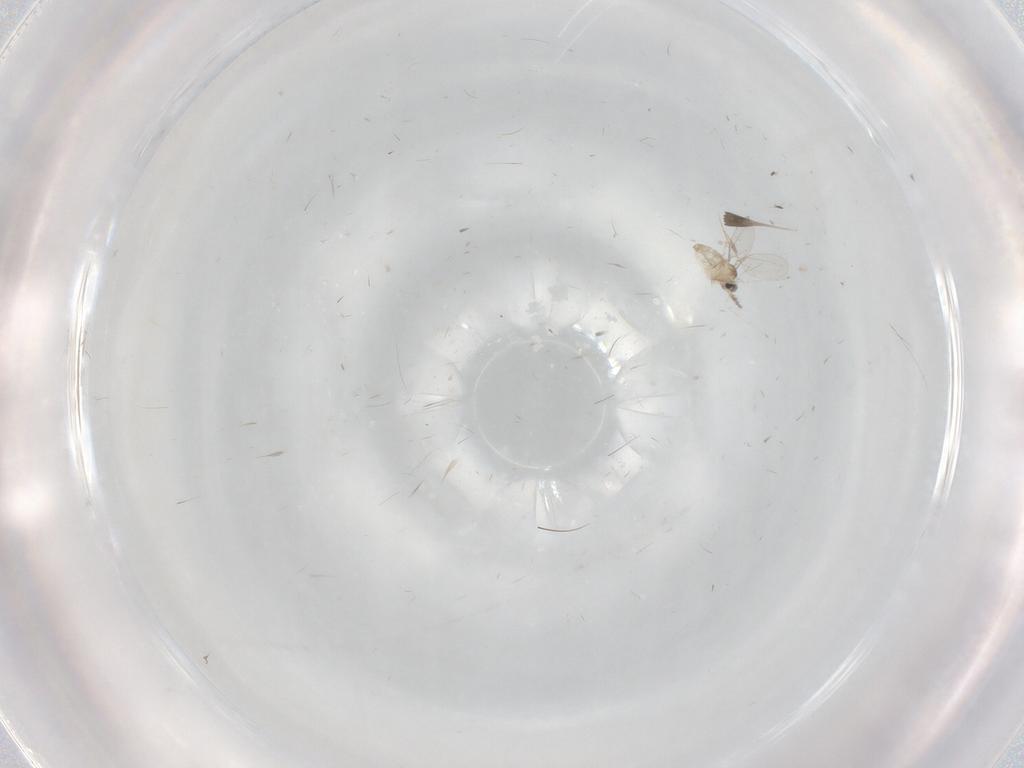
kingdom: Animalia
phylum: Arthropoda
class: Insecta
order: Diptera
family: Cecidomyiidae
